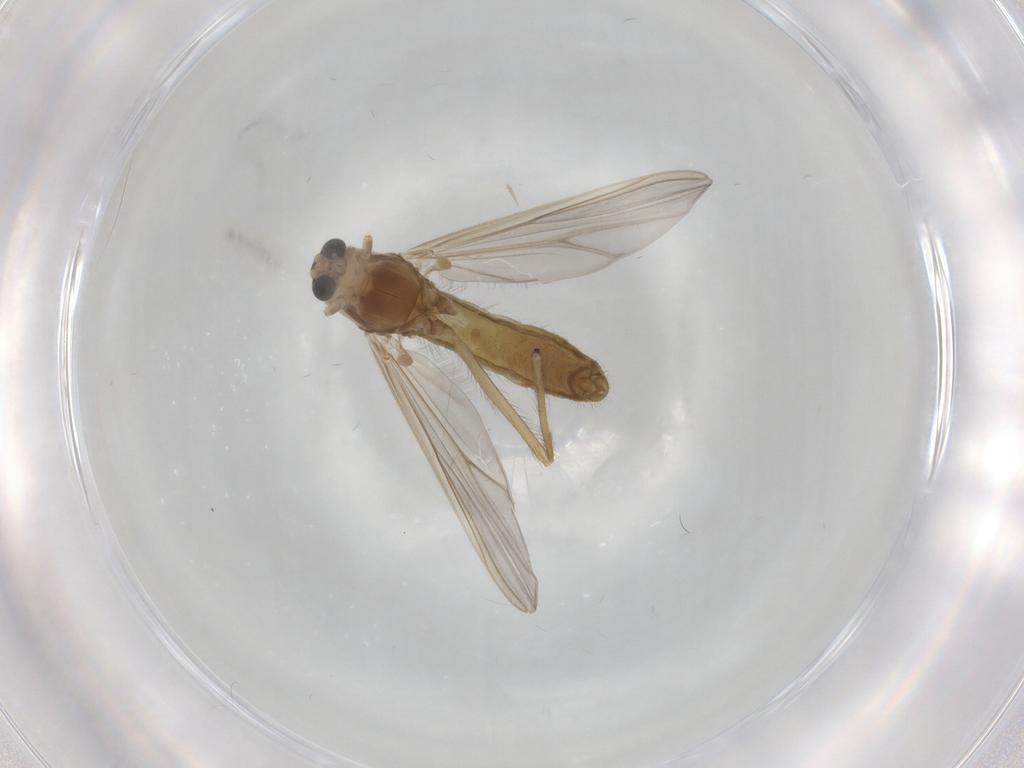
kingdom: Animalia
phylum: Arthropoda
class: Insecta
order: Diptera
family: Chironomidae
